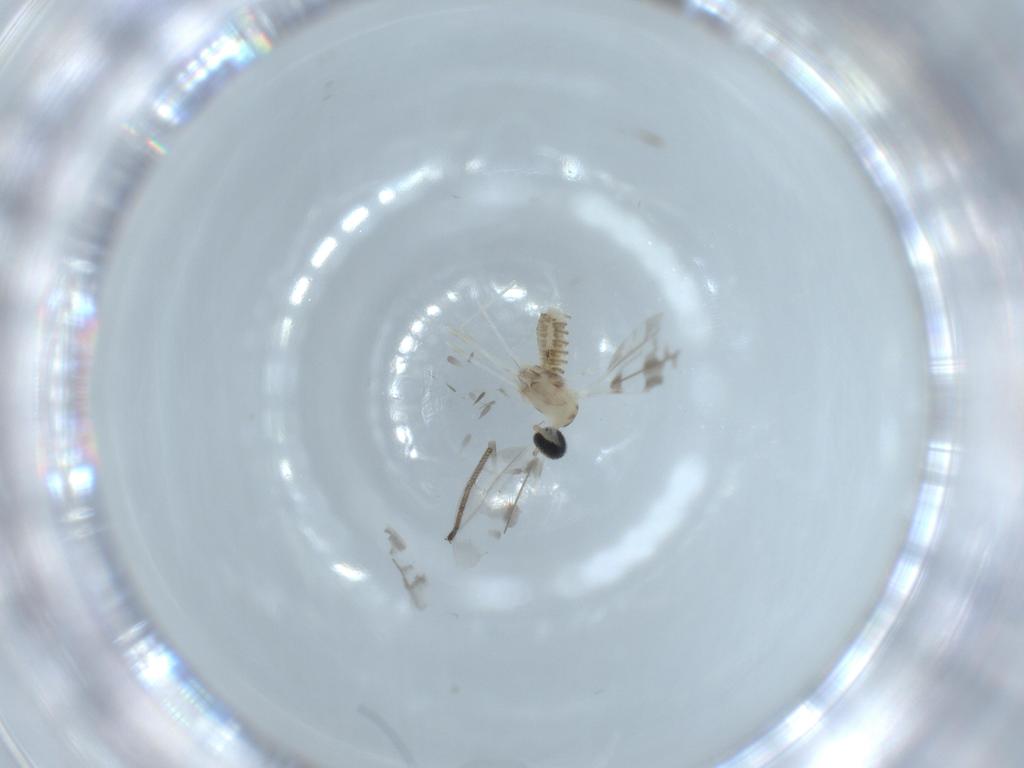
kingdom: Animalia
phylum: Arthropoda
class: Insecta
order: Diptera
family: Cecidomyiidae
